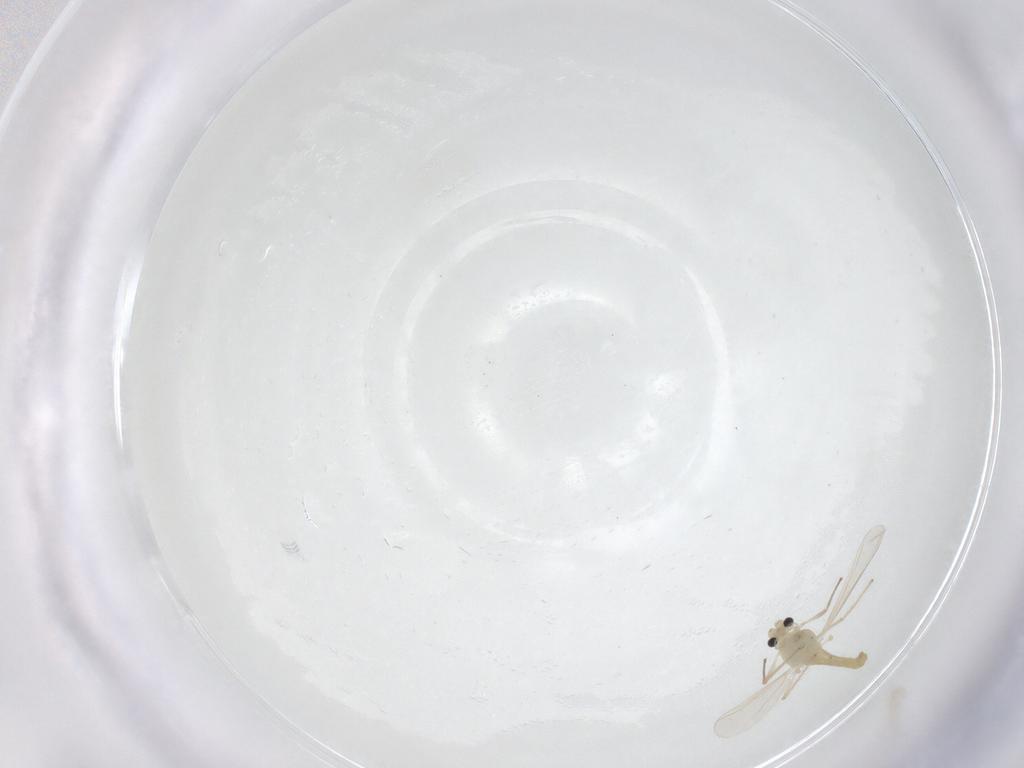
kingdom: Animalia
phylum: Arthropoda
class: Insecta
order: Diptera
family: Chironomidae
